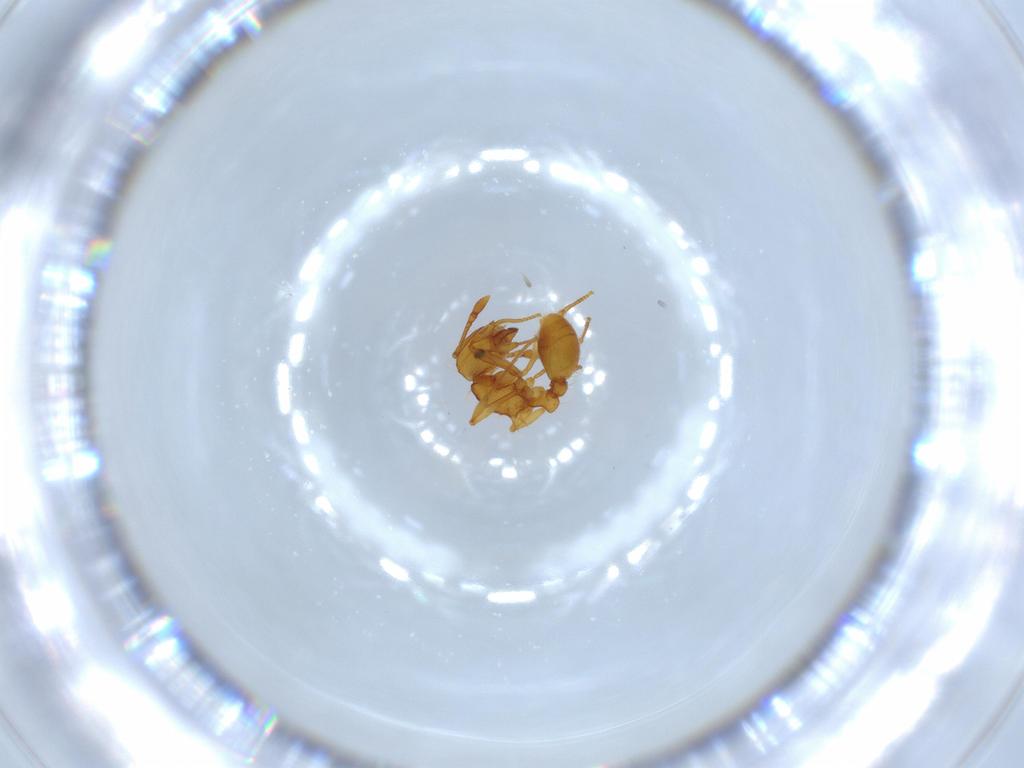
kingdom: Animalia
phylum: Arthropoda
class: Insecta
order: Hymenoptera
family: Formicidae
